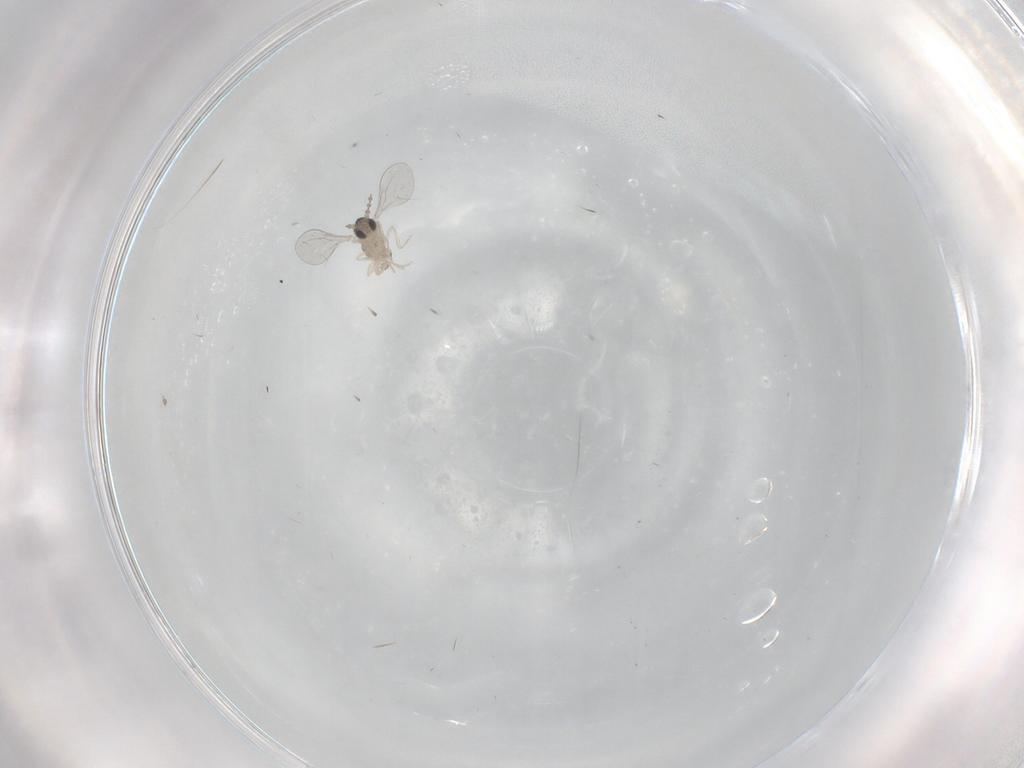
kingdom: Animalia
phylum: Arthropoda
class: Insecta
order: Diptera
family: Cecidomyiidae
